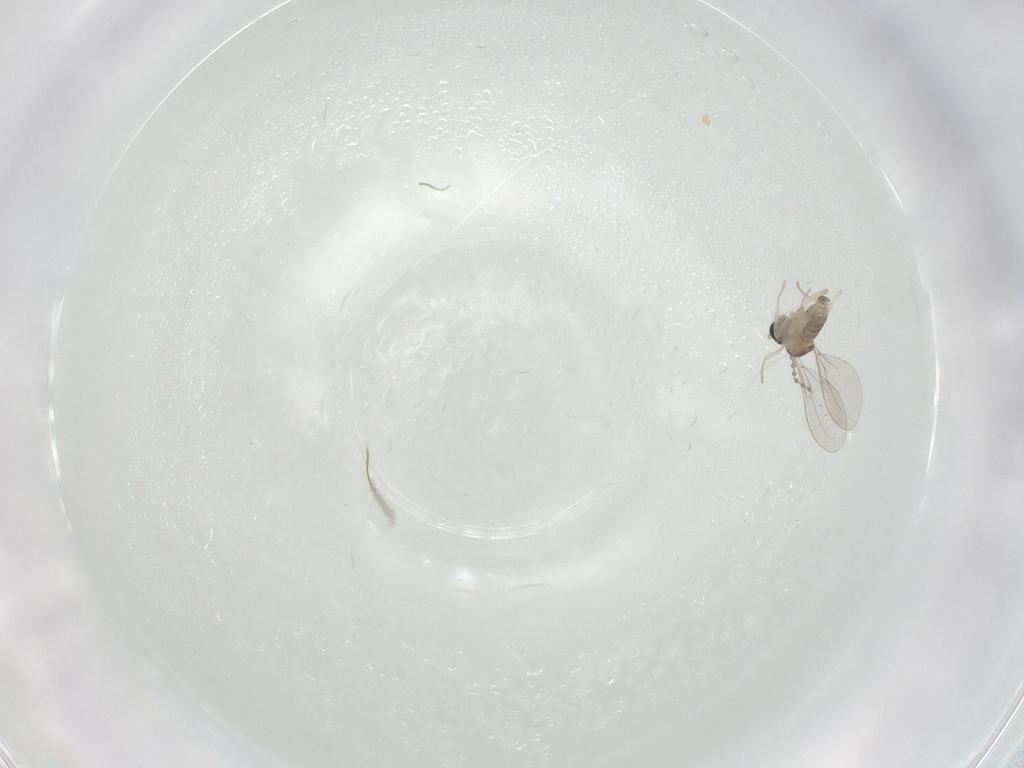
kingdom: Animalia
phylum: Arthropoda
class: Insecta
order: Diptera
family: Cecidomyiidae
